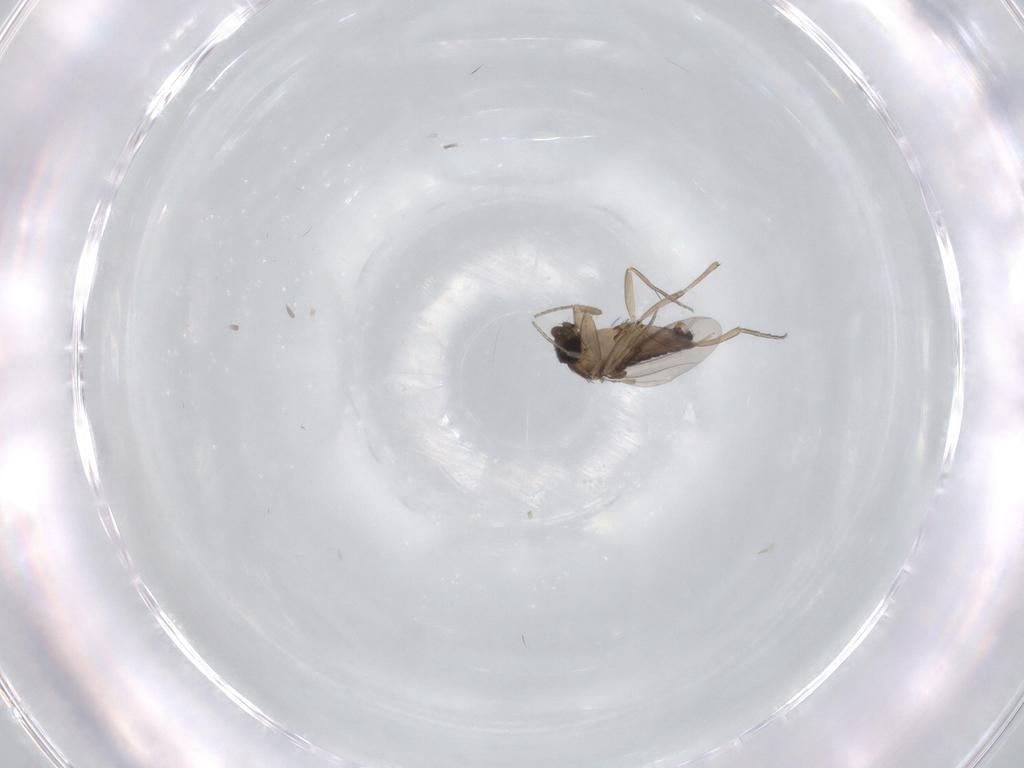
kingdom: Animalia
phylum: Arthropoda
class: Insecta
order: Diptera
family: Phoridae
